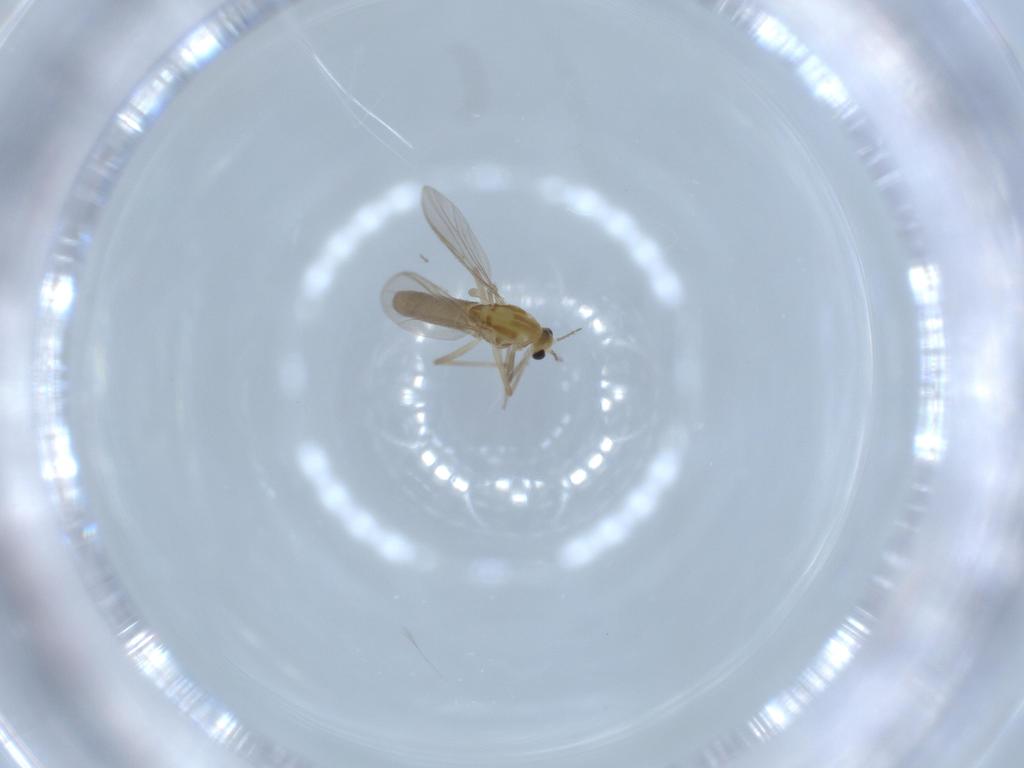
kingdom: Animalia
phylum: Arthropoda
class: Insecta
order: Diptera
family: Chironomidae
